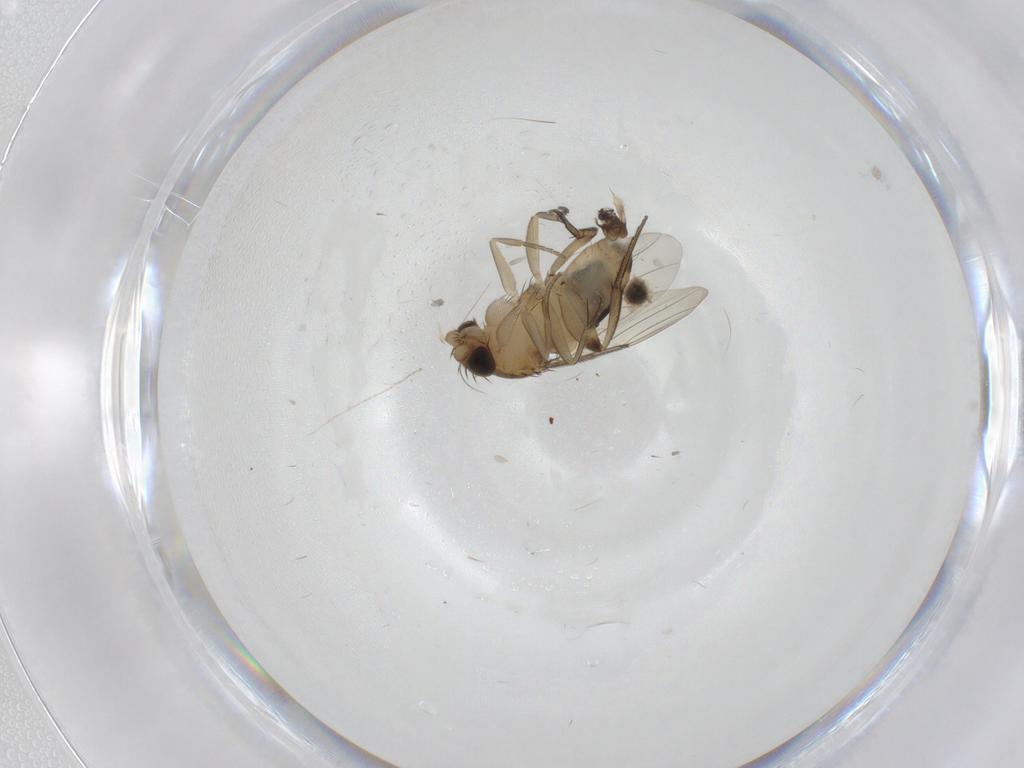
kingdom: Animalia
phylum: Arthropoda
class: Insecta
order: Diptera
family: Phoridae
